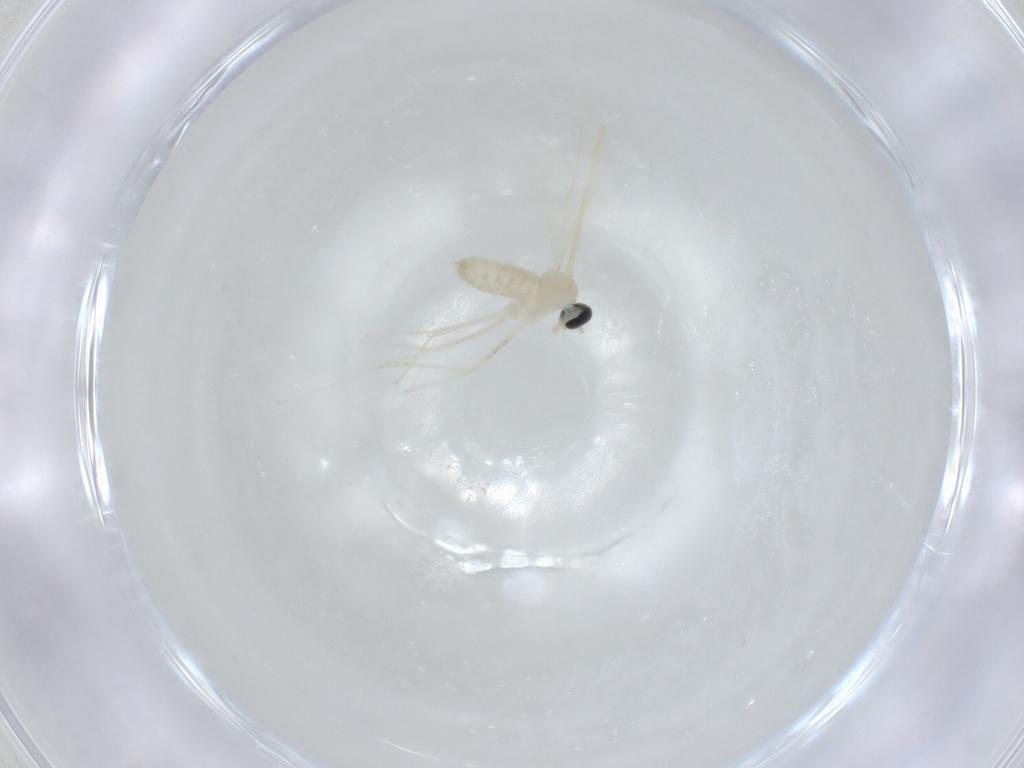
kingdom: Animalia
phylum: Arthropoda
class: Insecta
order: Diptera
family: Cecidomyiidae
